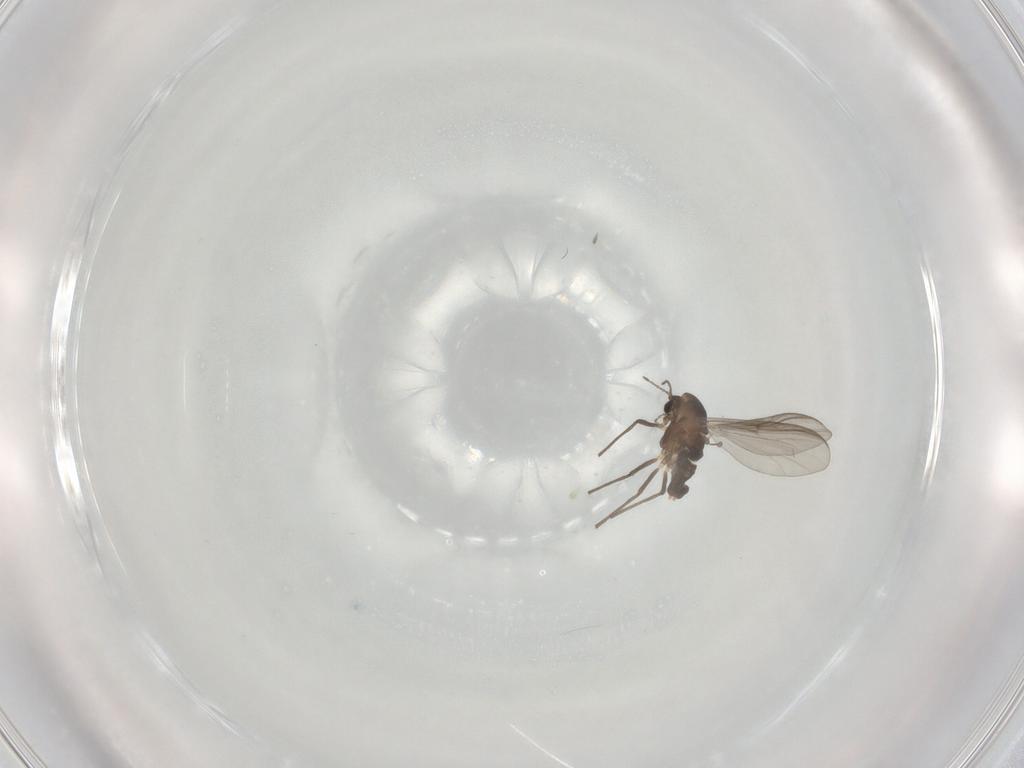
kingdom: Animalia
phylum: Arthropoda
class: Insecta
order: Diptera
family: Chironomidae
